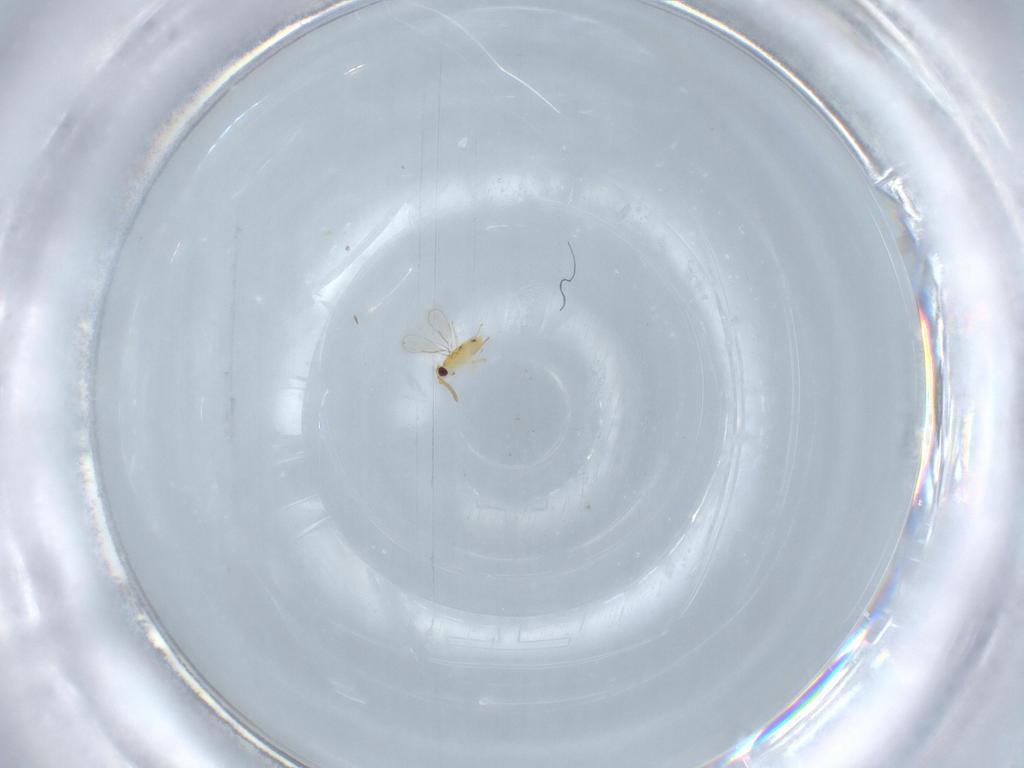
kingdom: Animalia
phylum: Arthropoda
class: Insecta
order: Hymenoptera
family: Aphelinidae
